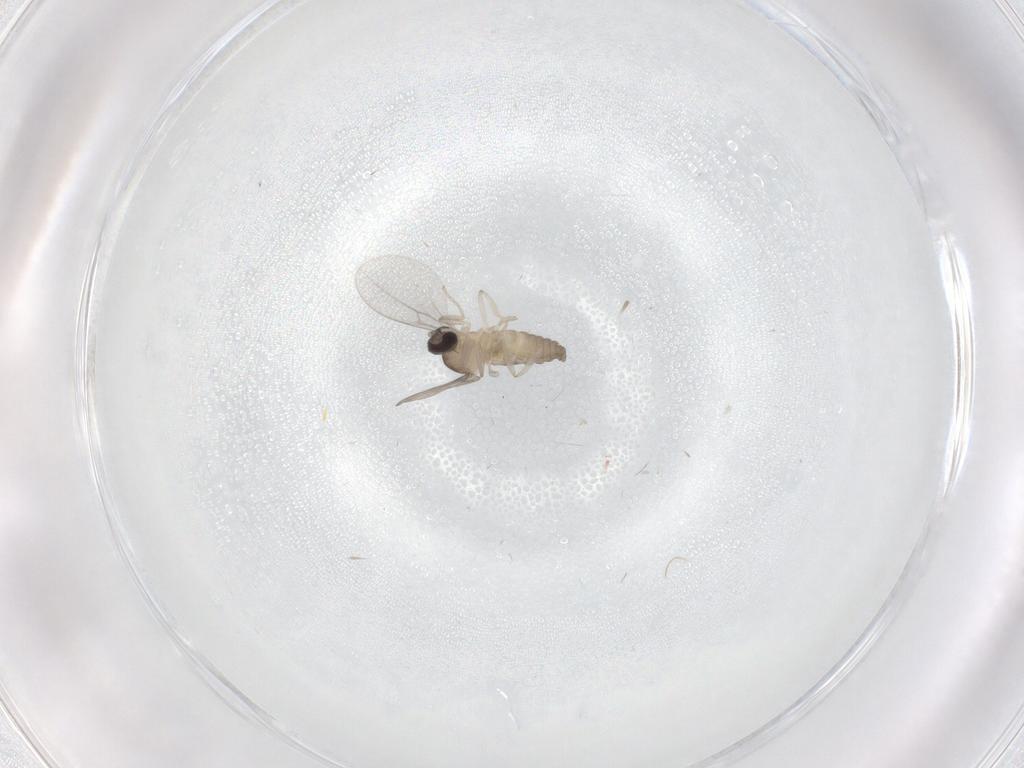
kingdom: Animalia
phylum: Arthropoda
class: Insecta
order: Diptera
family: Cecidomyiidae
